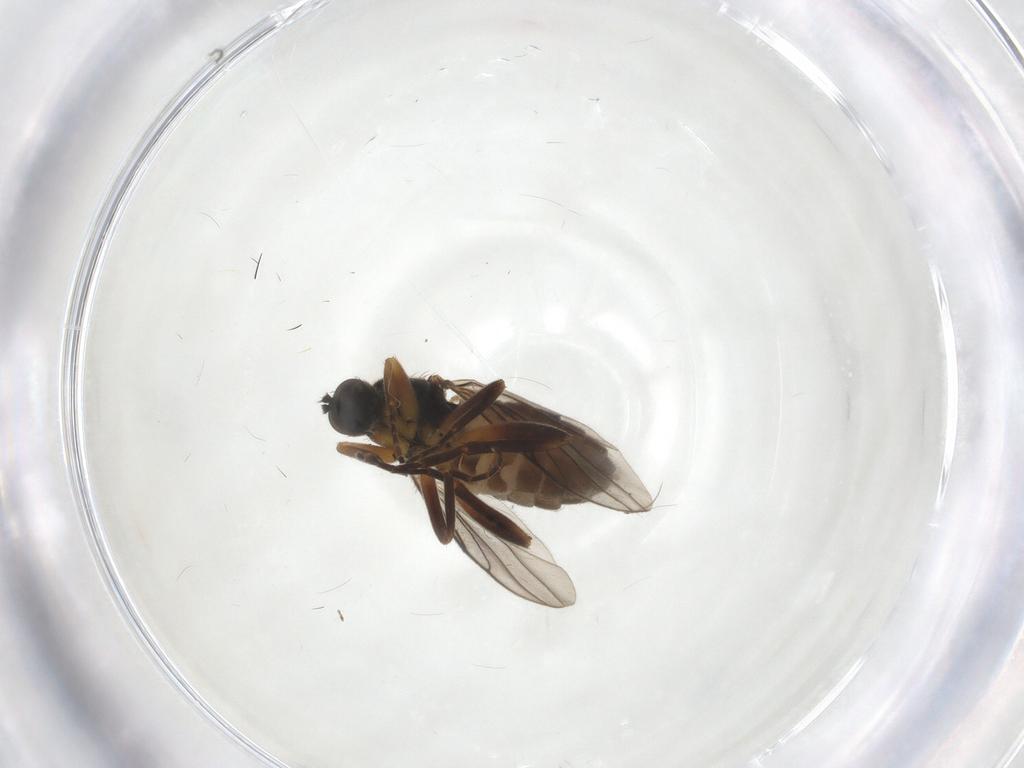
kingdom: Animalia
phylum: Arthropoda
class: Insecta
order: Diptera
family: Hybotidae
